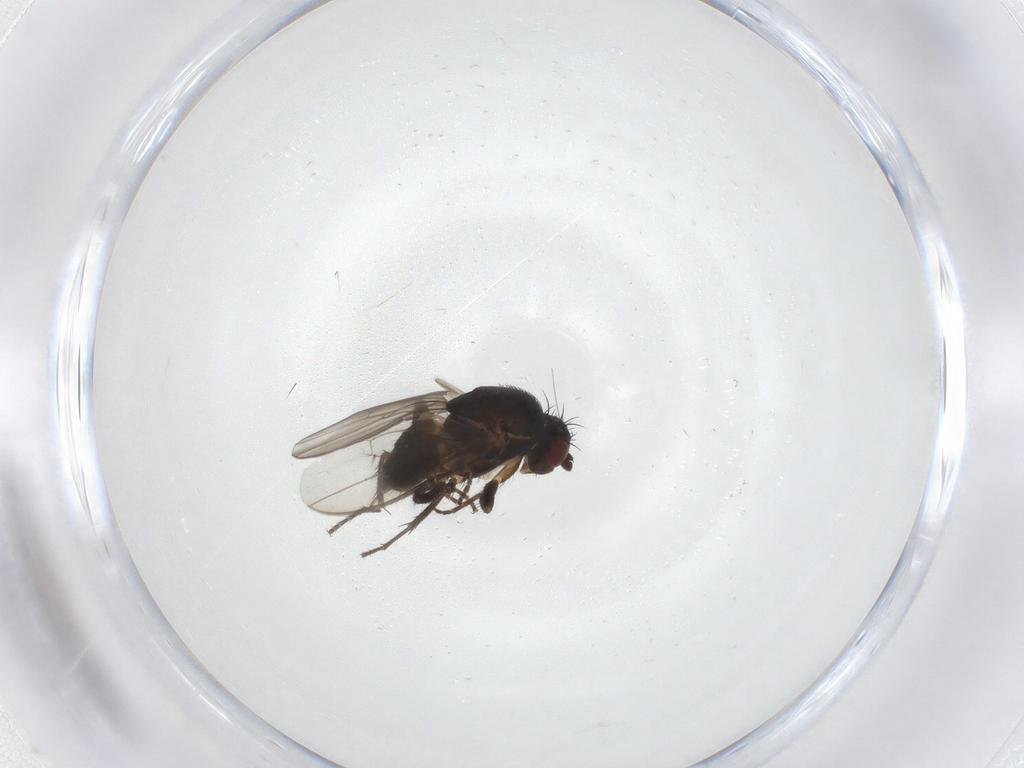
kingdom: Animalia
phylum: Arthropoda
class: Insecta
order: Diptera
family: Sphaeroceridae
